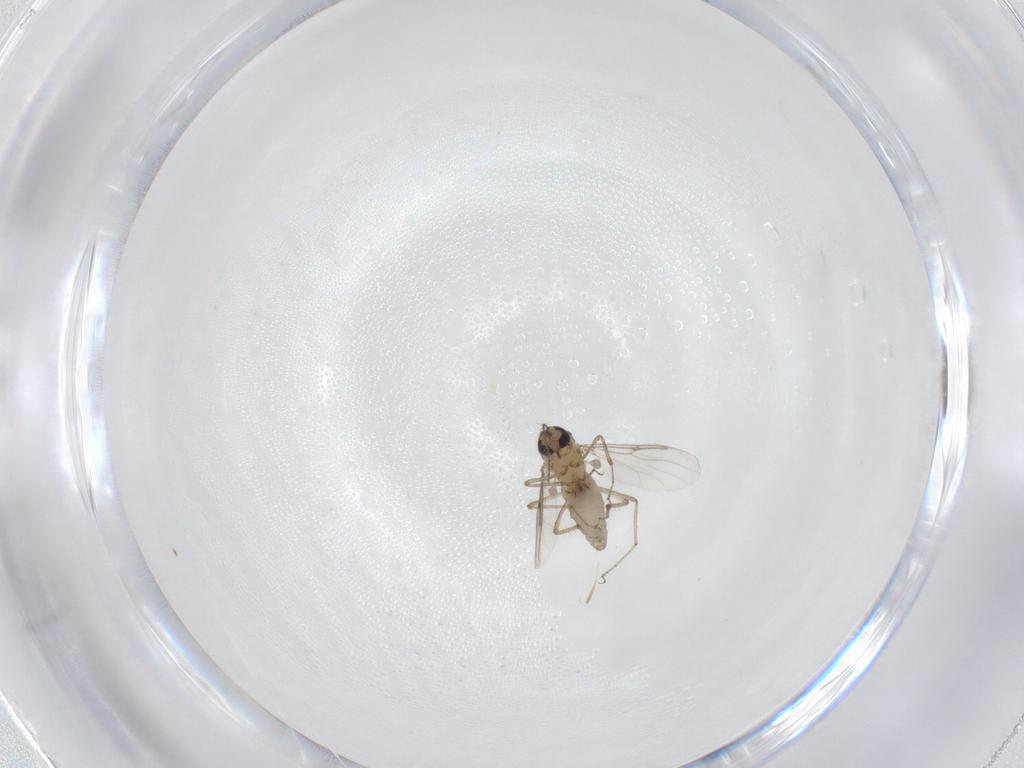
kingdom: Animalia
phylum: Arthropoda
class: Insecta
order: Diptera
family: Ceratopogonidae
